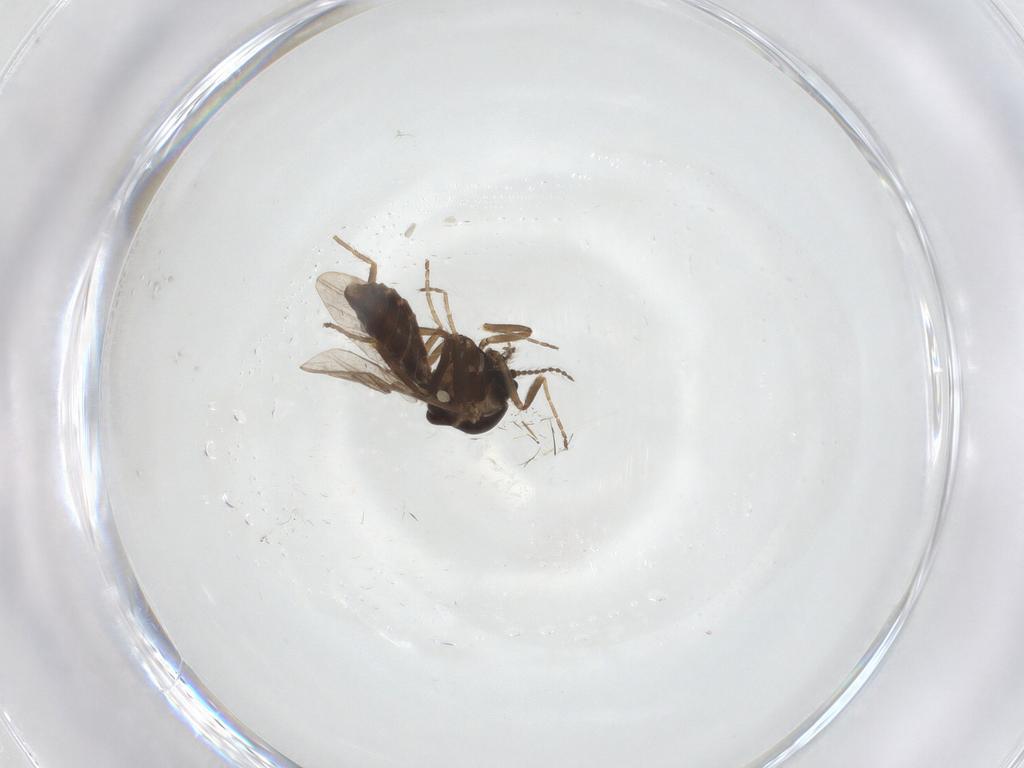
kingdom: Animalia
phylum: Arthropoda
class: Insecta
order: Diptera
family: Ceratopogonidae
